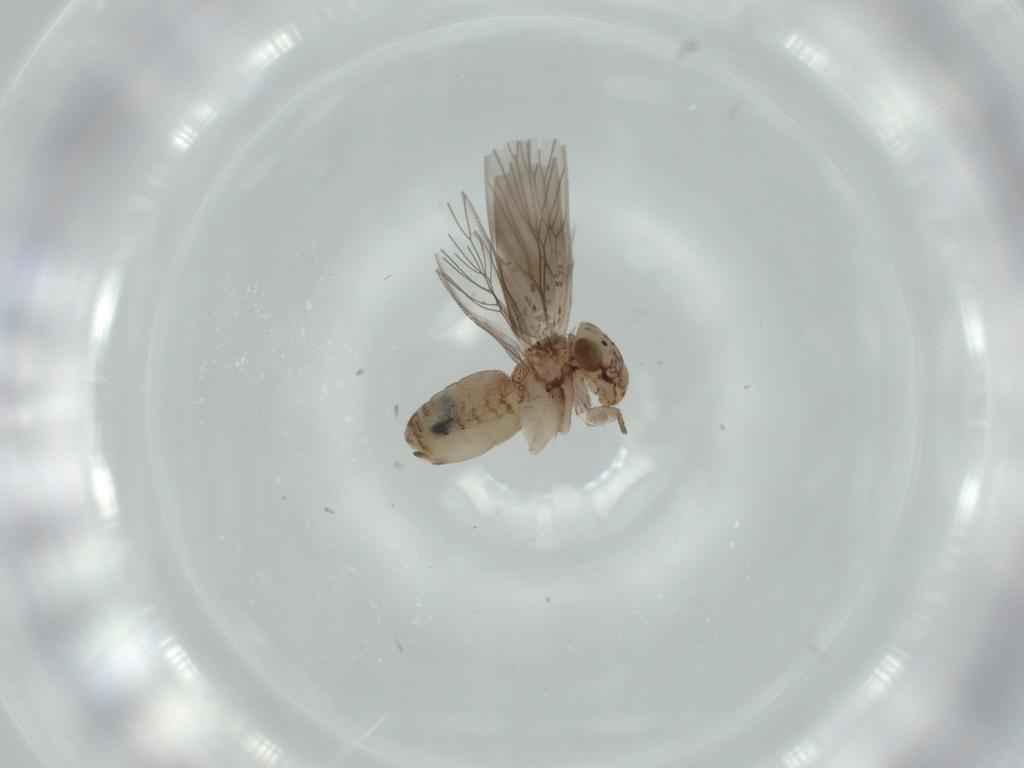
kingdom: Animalia
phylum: Arthropoda
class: Insecta
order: Psocodea
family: Lepidopsocidae
